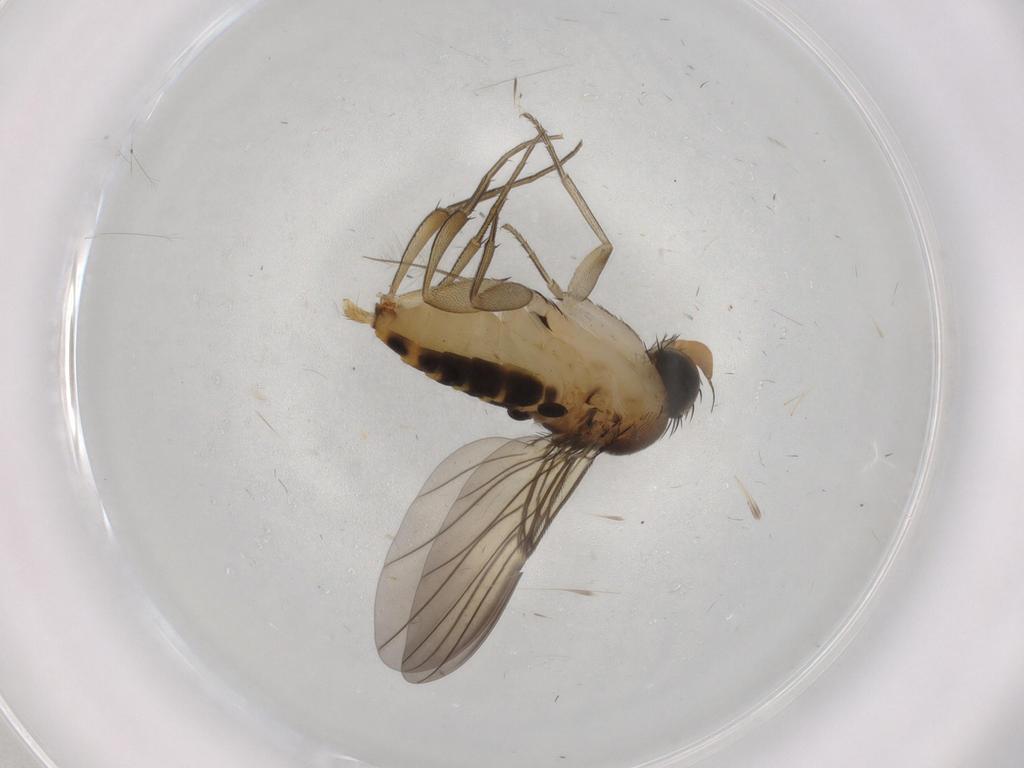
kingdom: Animalia
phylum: Arthropoda
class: Insecta
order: Diptera
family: Phoridae
